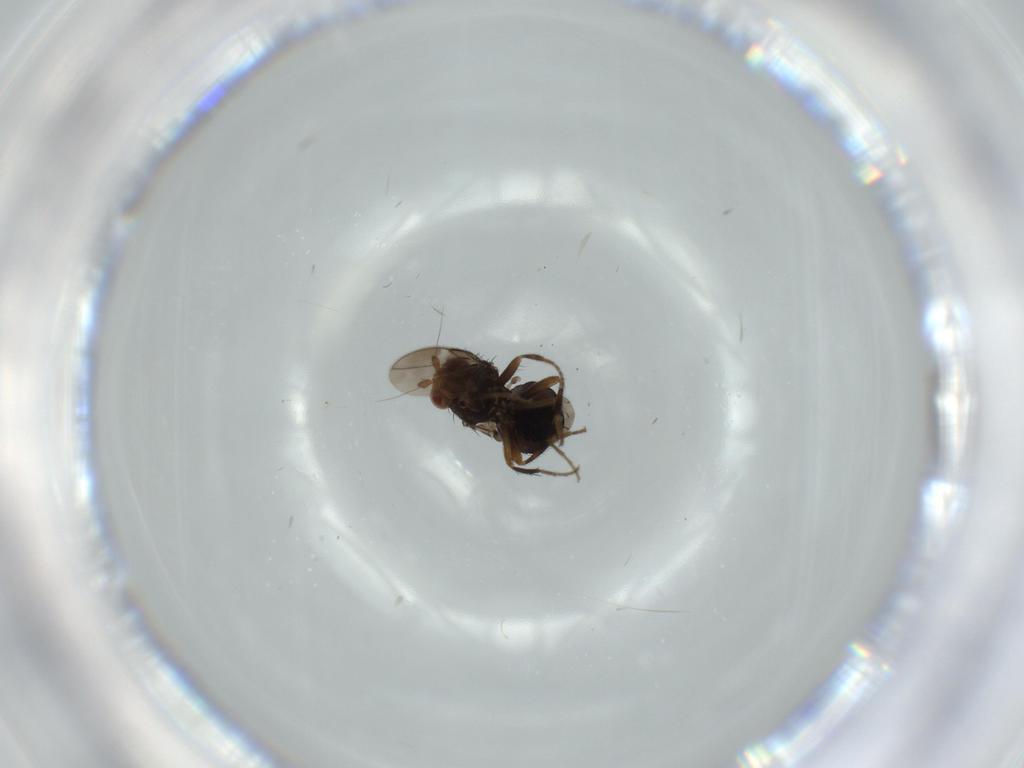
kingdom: Animalia
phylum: Arthropoda
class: Insecta
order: Diptera
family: Sphaeroceridae
